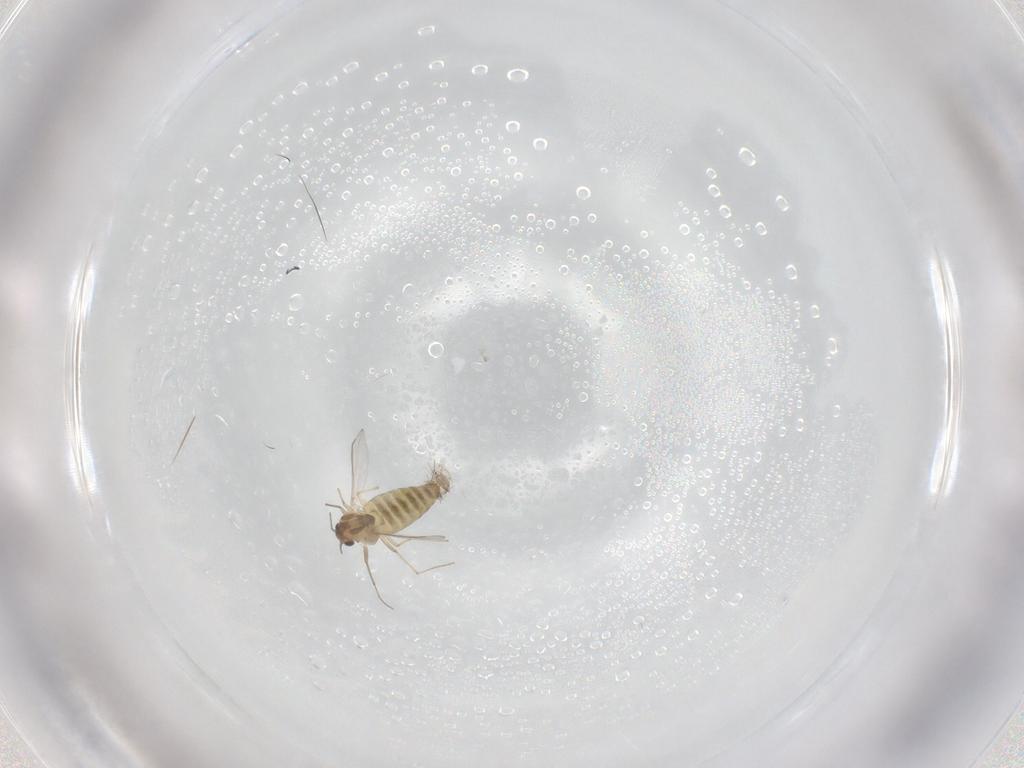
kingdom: Animalia
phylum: Arthropoda
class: Insecta
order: Diptera
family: Chironomidae
